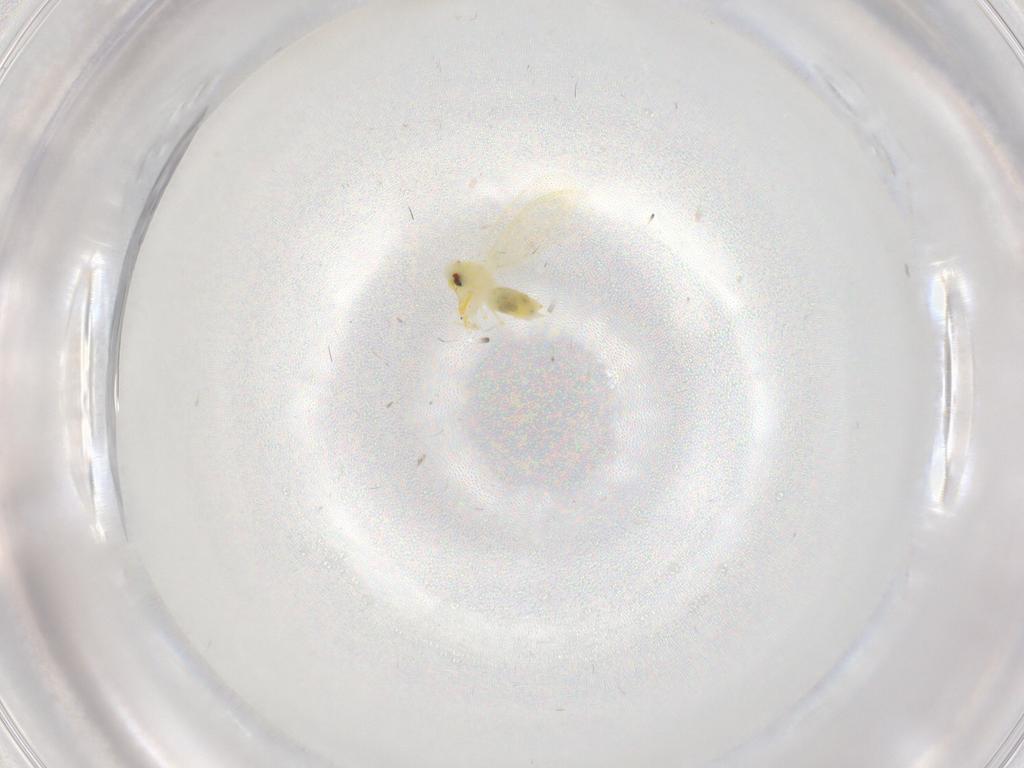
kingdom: Animalia
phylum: Arthropoda
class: Insecta
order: Hemiptera
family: Aleyrodidae
